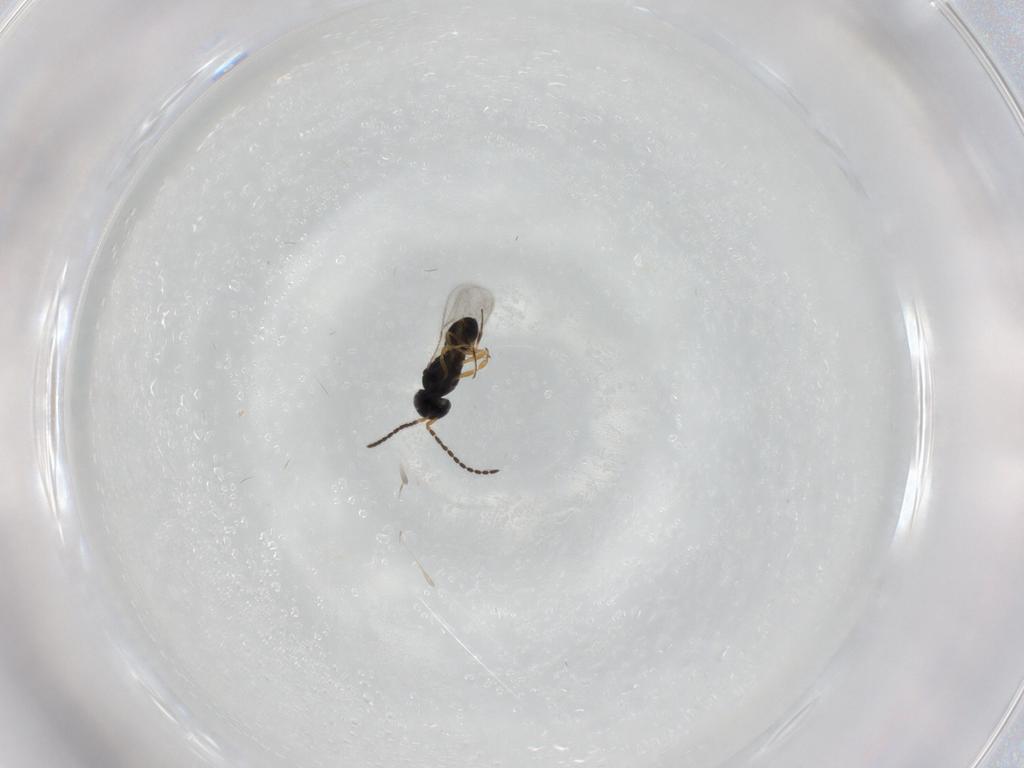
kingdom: Animalia
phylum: Arthropoda
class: Insecta
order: Hymenoptera
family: Scelionidae
